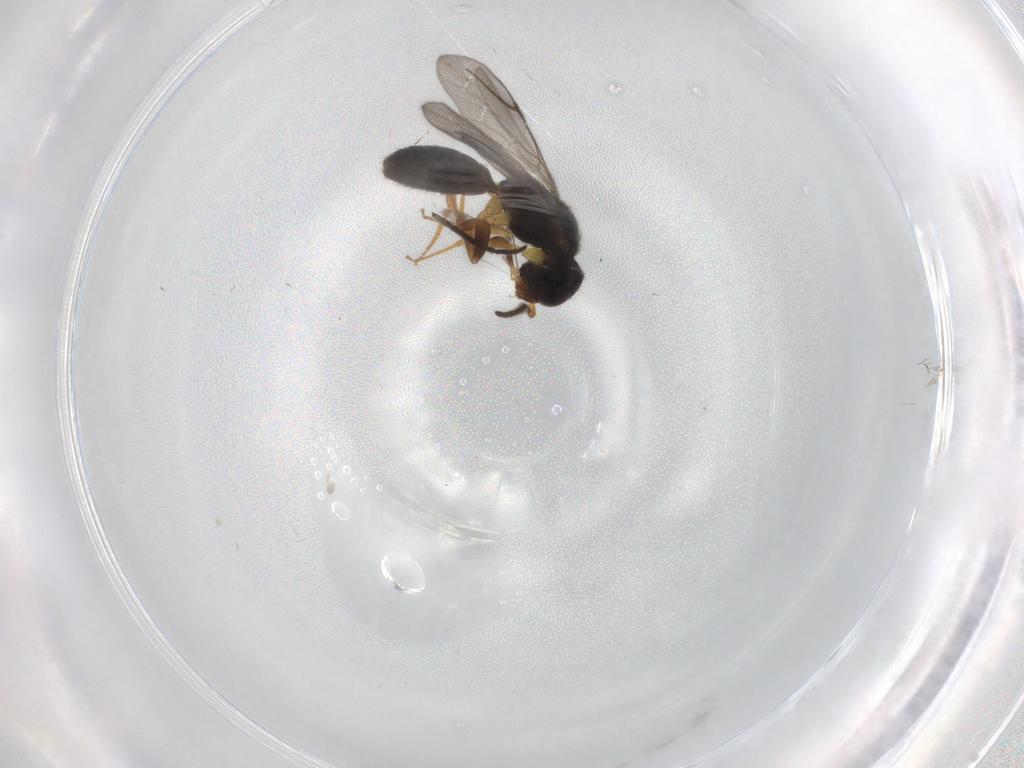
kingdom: Animalia
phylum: Arthropoda
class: Insecta
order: Hymenoptera
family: Bethylidae
